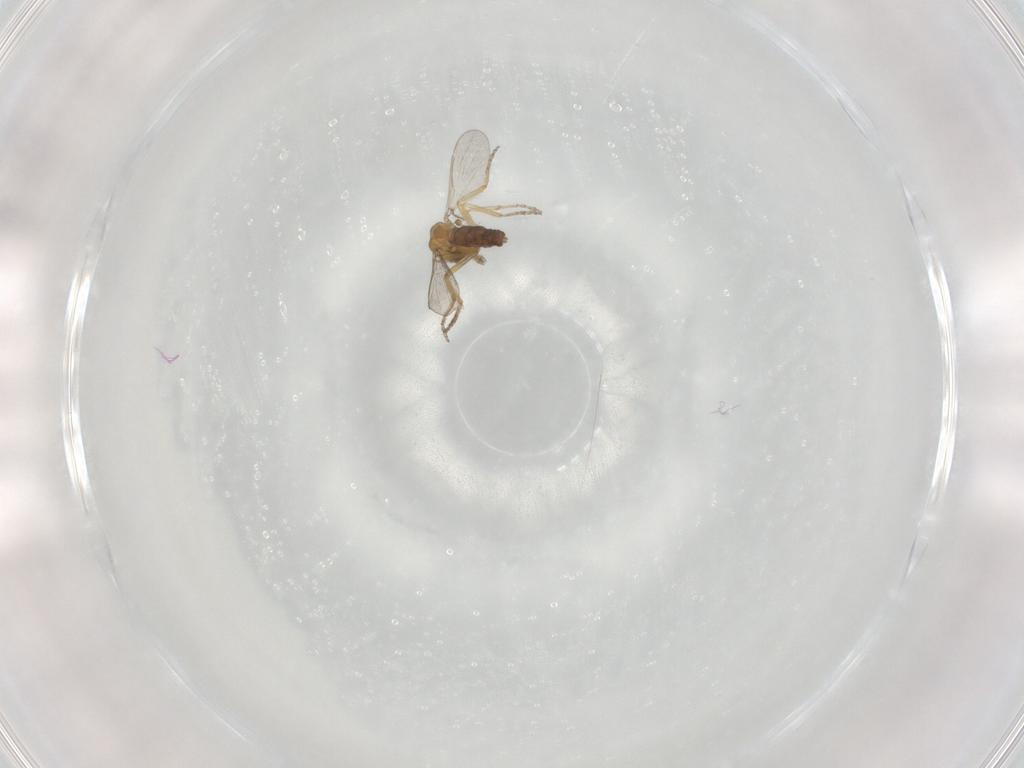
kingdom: Animalia
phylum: Arthropoda
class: Insecta
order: Diptera
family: Ceratopogonidae
